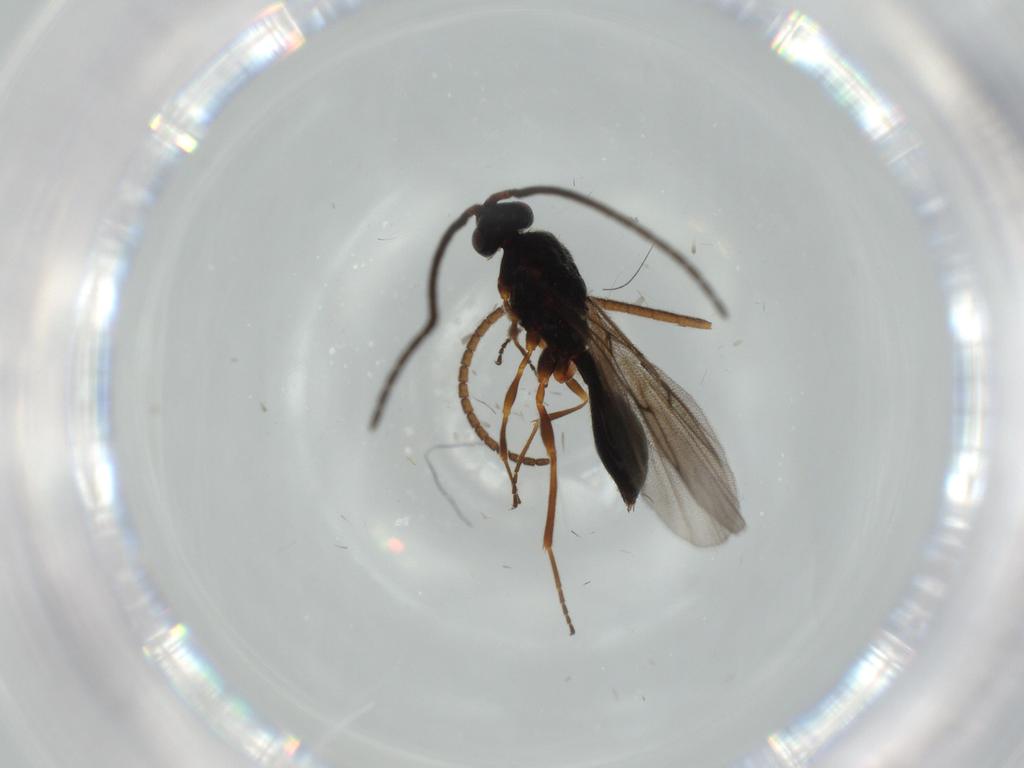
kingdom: Animalia
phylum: Arthropoda
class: Insecta
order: Hymenoptera
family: Diapriidae
